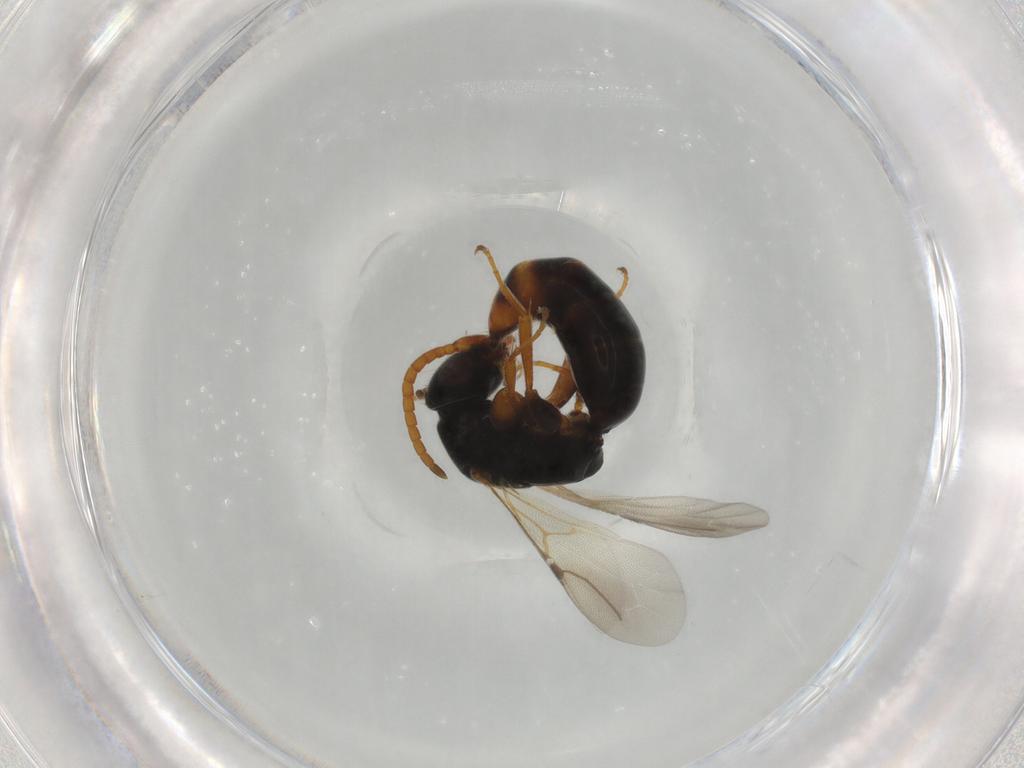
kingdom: Animalia
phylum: Arthropoda
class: Insecta
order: Hymenoptera
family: Bethylidae
